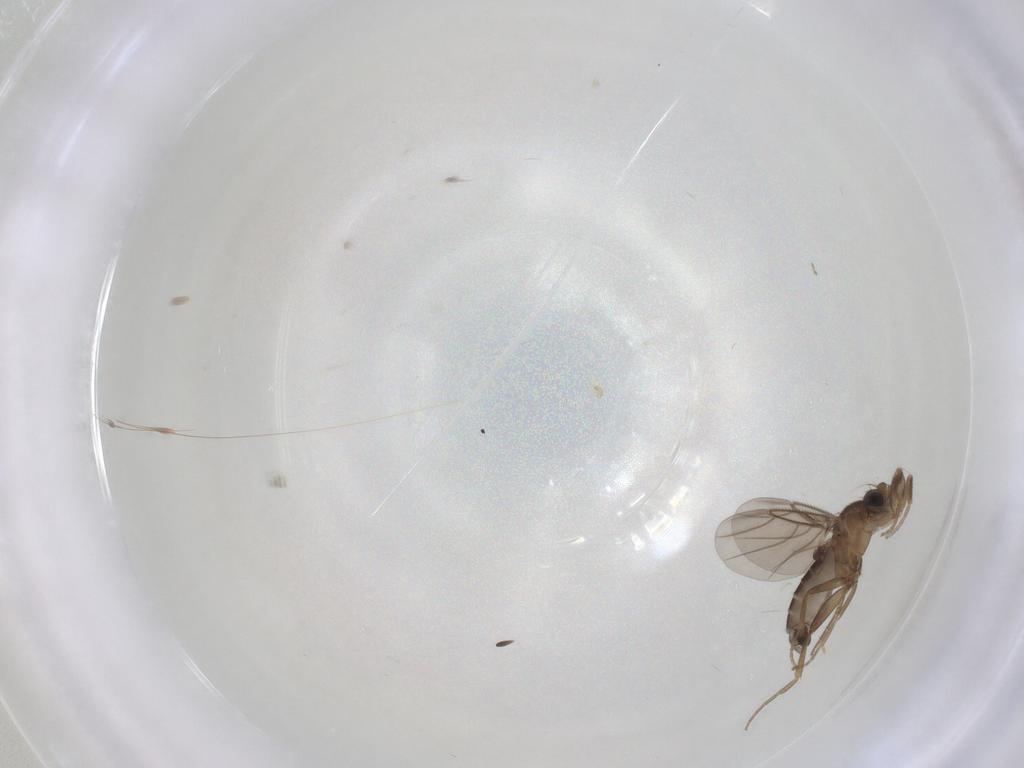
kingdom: Animalia
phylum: Arthropoda
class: Insecta
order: Diptera
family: Phoridae
